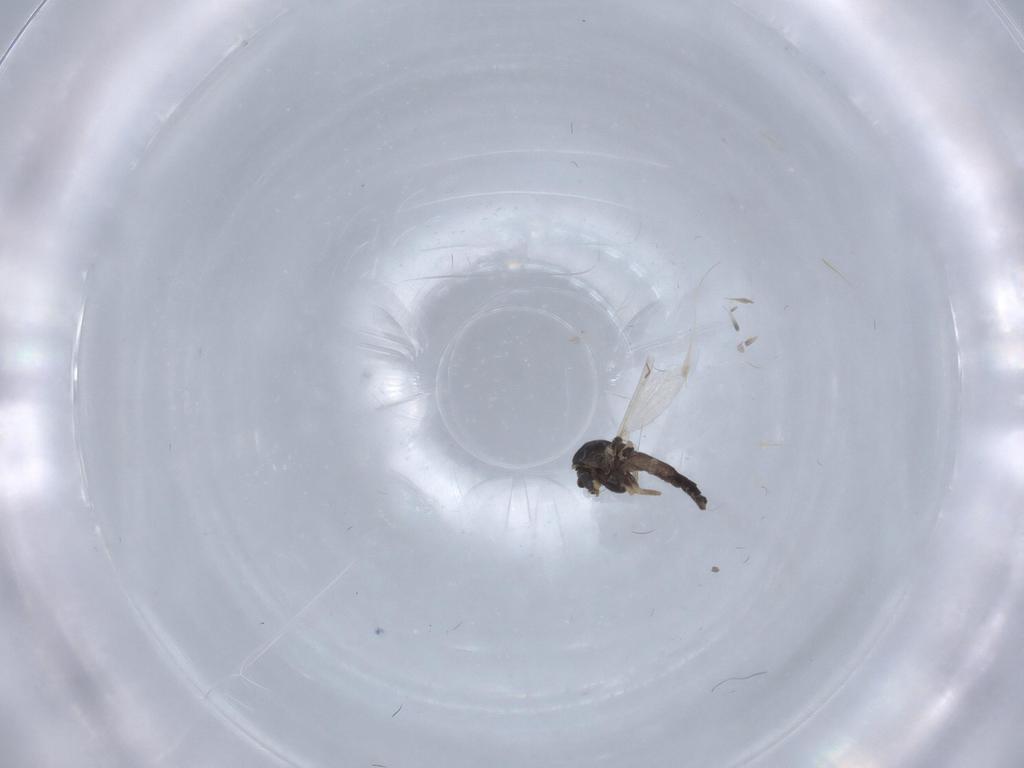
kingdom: Animalia
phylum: Arthropoda
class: Insecta
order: Diptera
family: Chironomidae
